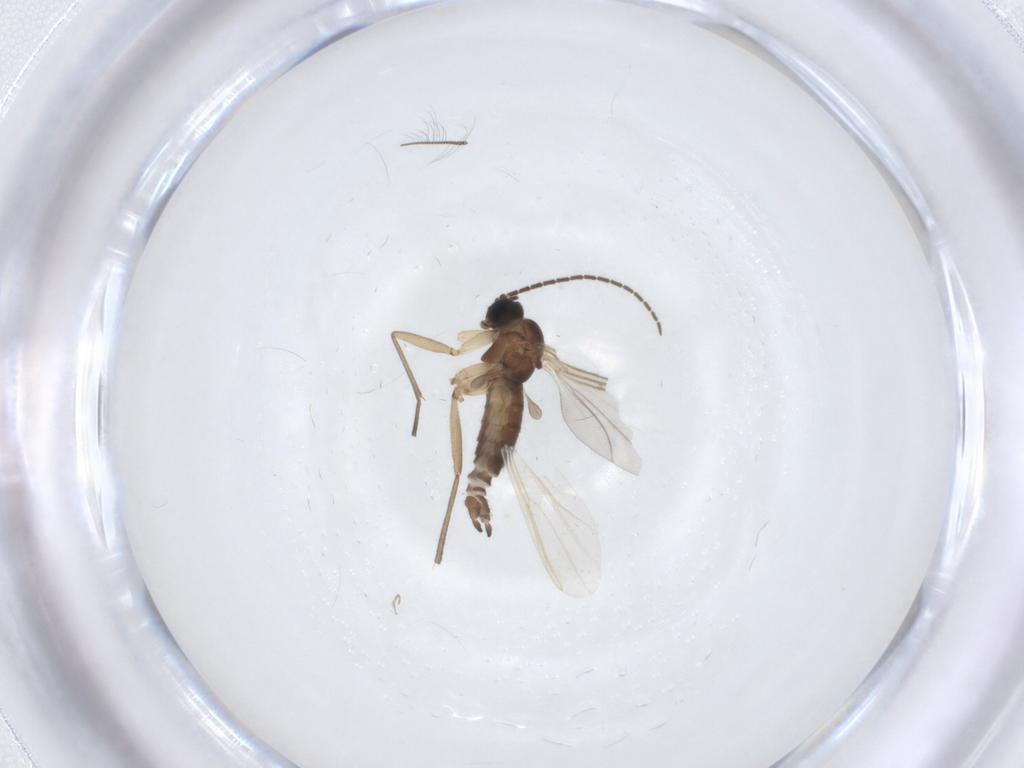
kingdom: Animalia
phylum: Arthropoda
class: Insecta
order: Diptera
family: Sciaridae
